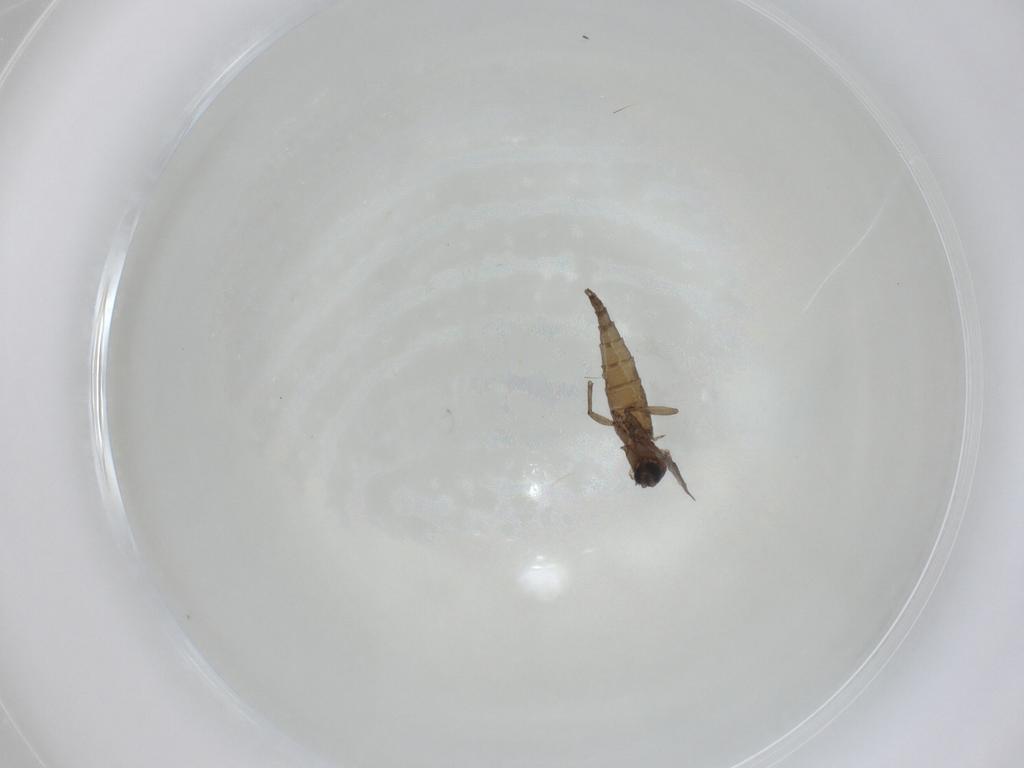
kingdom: Animalia
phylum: Arthropoda
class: Insecta
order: Diptera
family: Sciaridae
